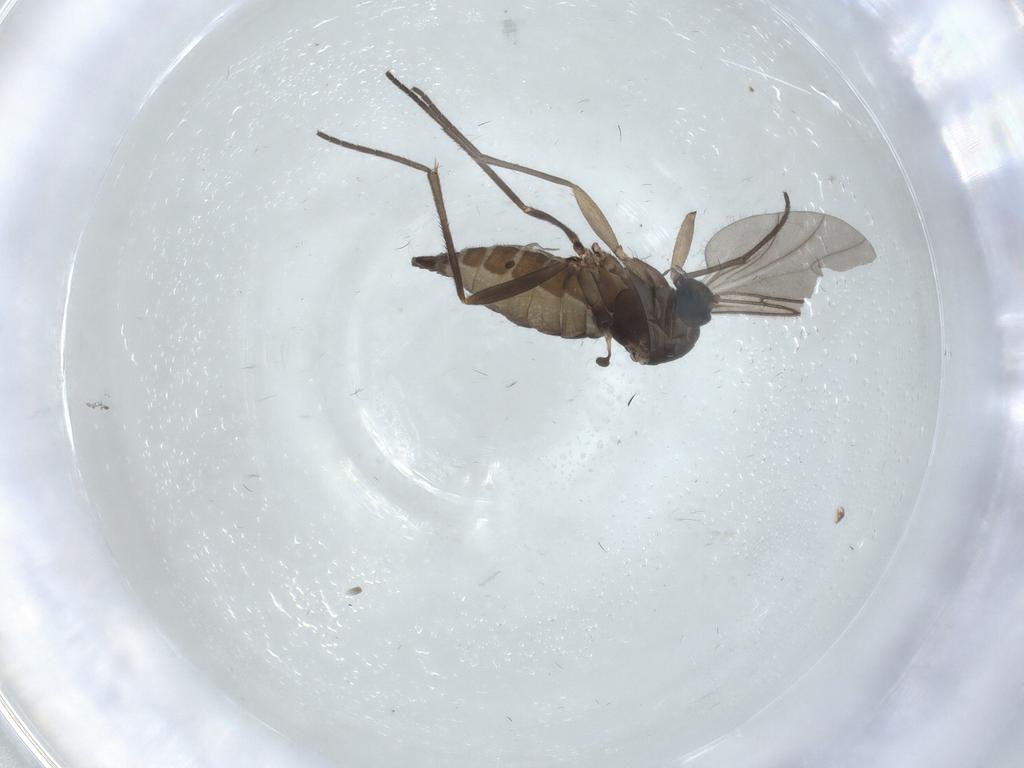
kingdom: Animalia
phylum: Arthropoda
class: Insecta
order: Diptera
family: Sciaridae
